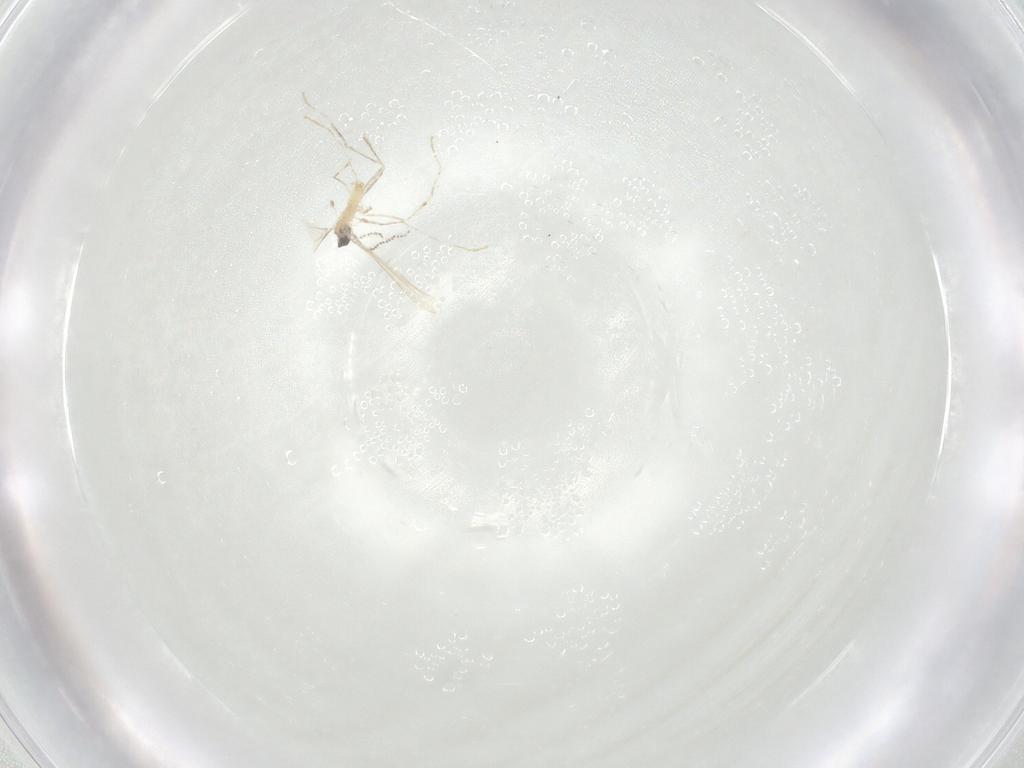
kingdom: Animalia
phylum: Arthropoda
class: Insecta
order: Diptera
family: Cecidomyiidae
